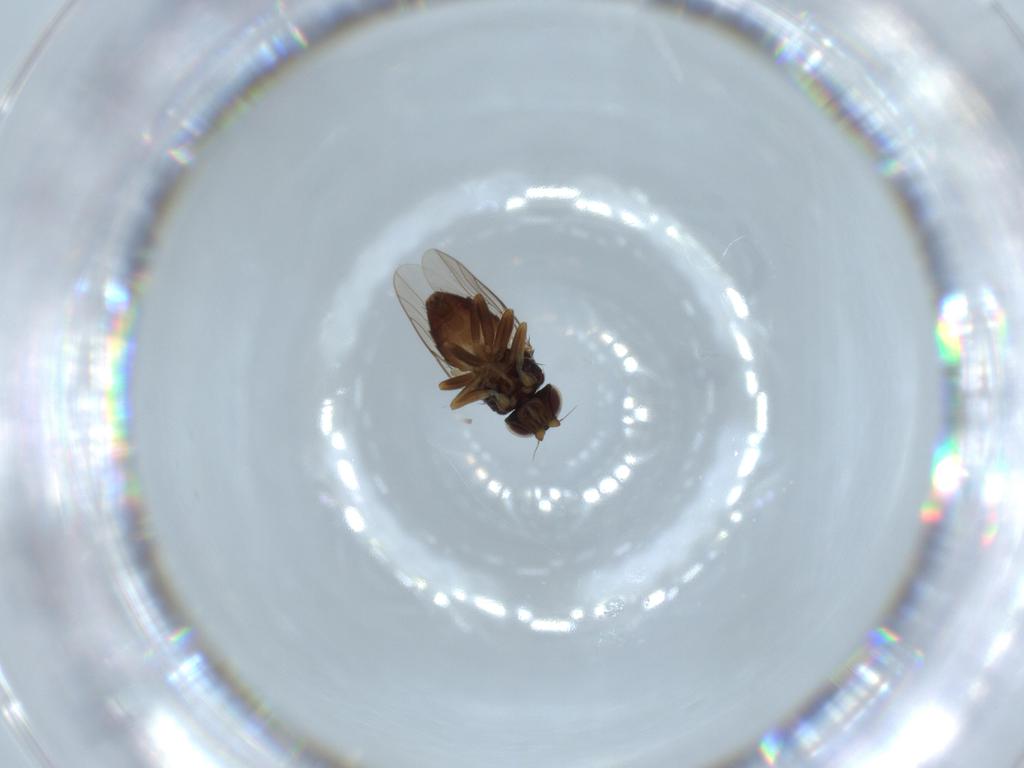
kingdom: Animalia
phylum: Arthropoda
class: Insecta
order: Diptera
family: Chloropidae
